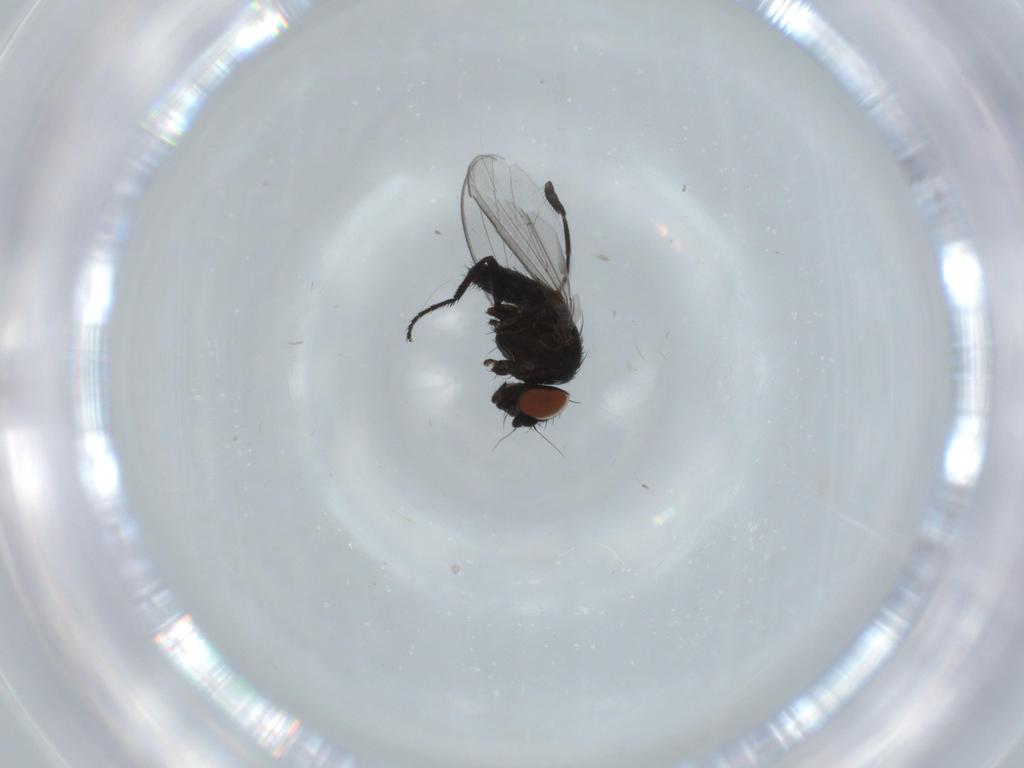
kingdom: Animalia
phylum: Arthropoda
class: Insecta
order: Diptera
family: Milichiidae
